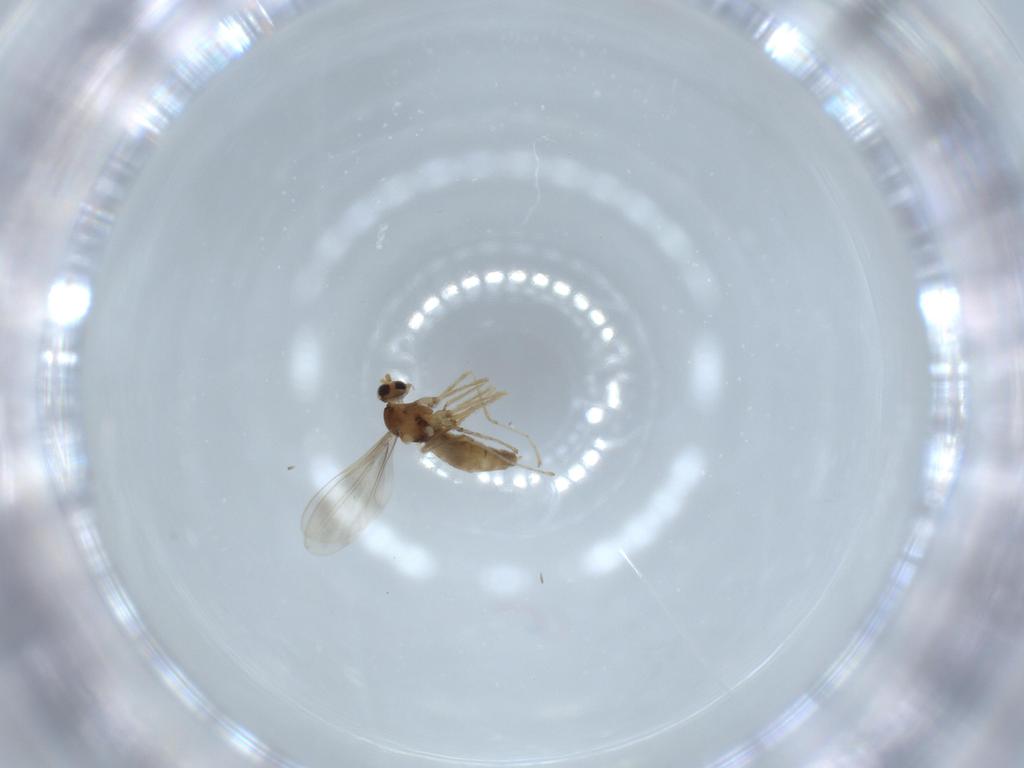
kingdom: Animalia
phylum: Arthropoda
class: Insecta
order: Diptera
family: Cecidomyiidae
